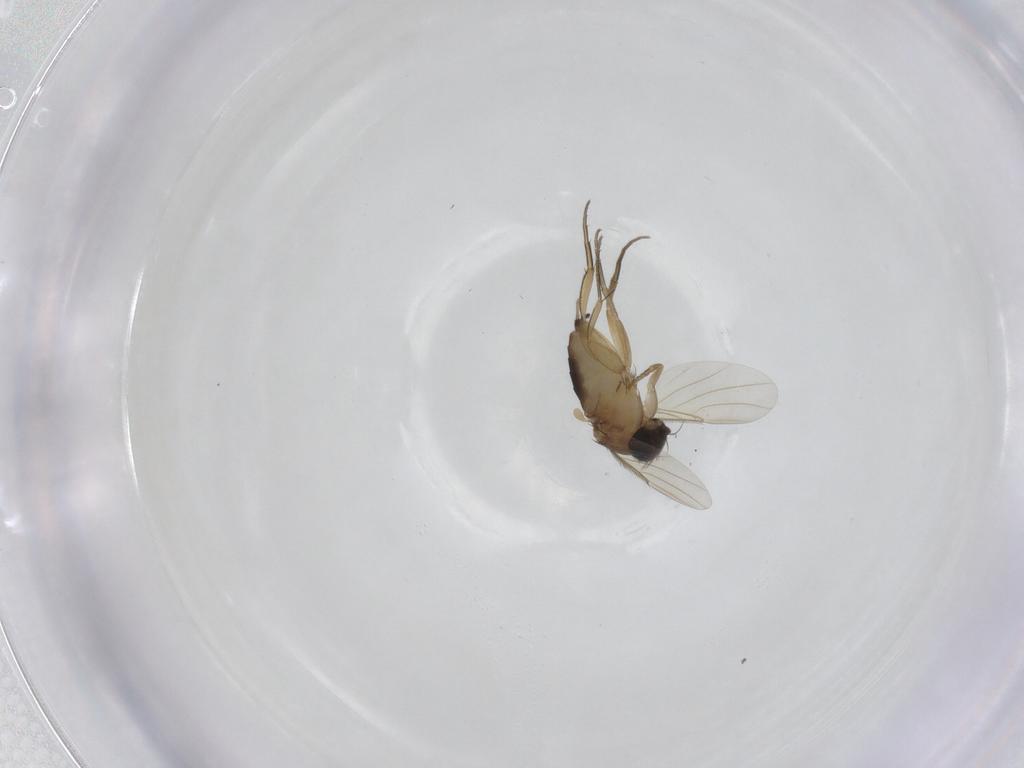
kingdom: Animalia
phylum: Arthropoda
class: Insecta
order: Diptera
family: Phoridae
